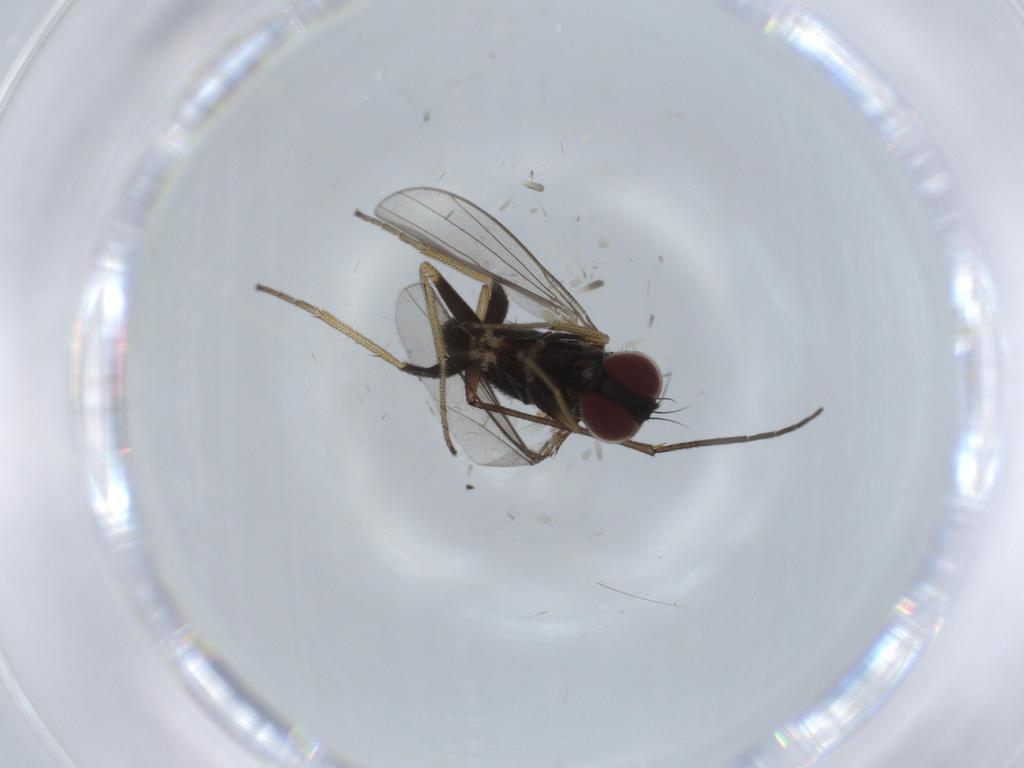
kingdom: Animalia
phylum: Arthropoda
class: Insecta
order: Diptera
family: Sciaridae
